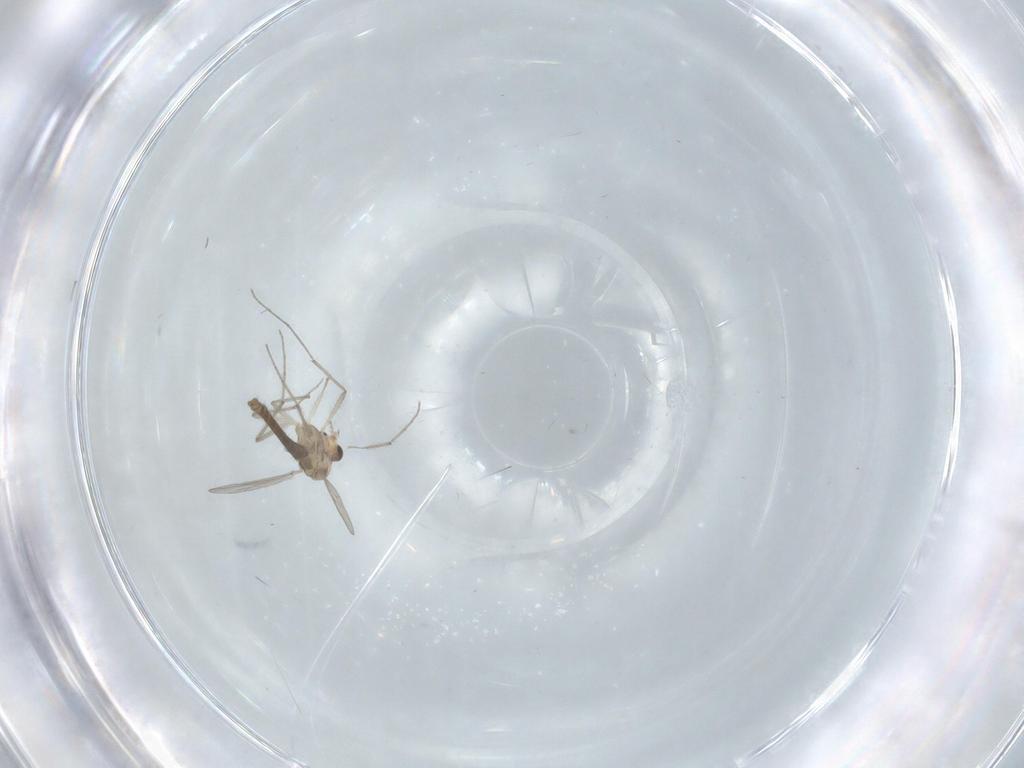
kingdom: Animalia
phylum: Arthropoda
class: Insecta
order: Diptera
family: Chironomidae
